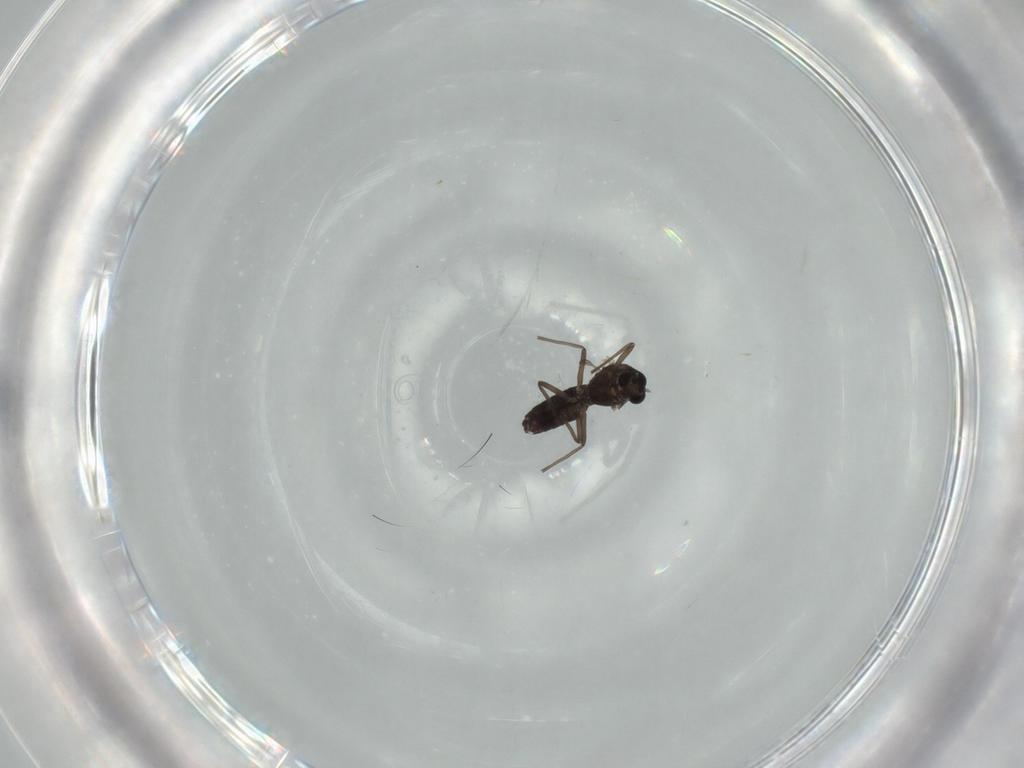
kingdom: Animalia
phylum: Arthropoda
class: Insecta
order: Diptera
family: Chironomidae
